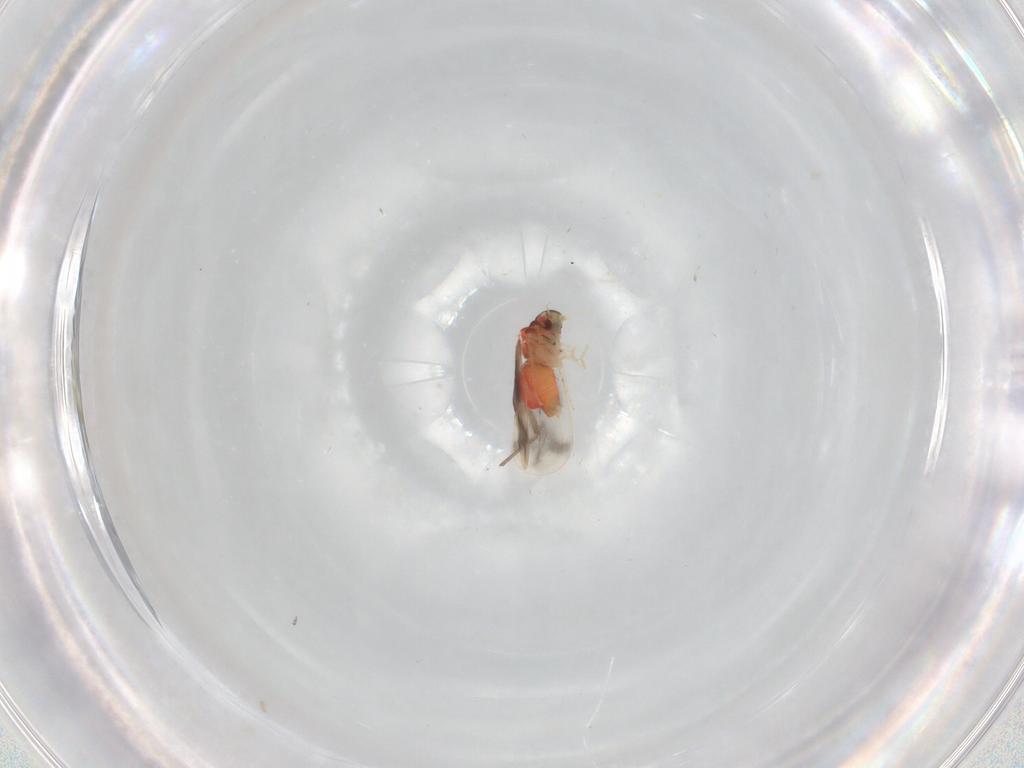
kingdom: Animalia
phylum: Arthropoda
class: Insecta
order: Hemiptera
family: Aleyrodidae
